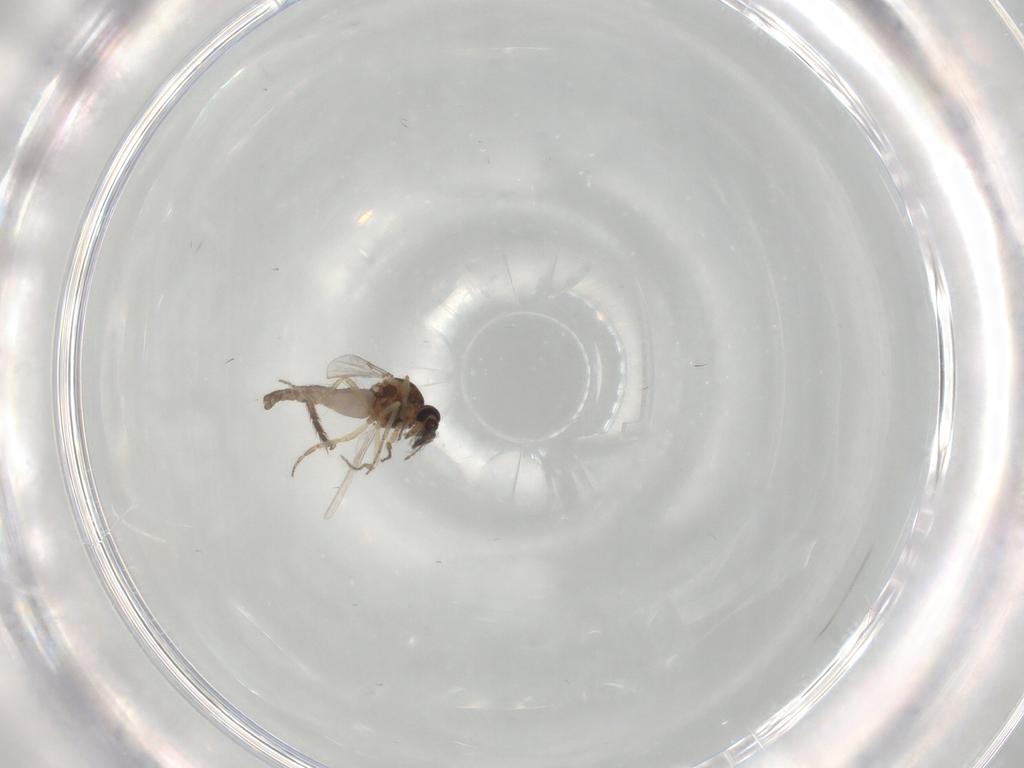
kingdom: Animalia
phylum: Arthropoda
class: Insecta
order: Diptera
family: Ceratopogonidae
